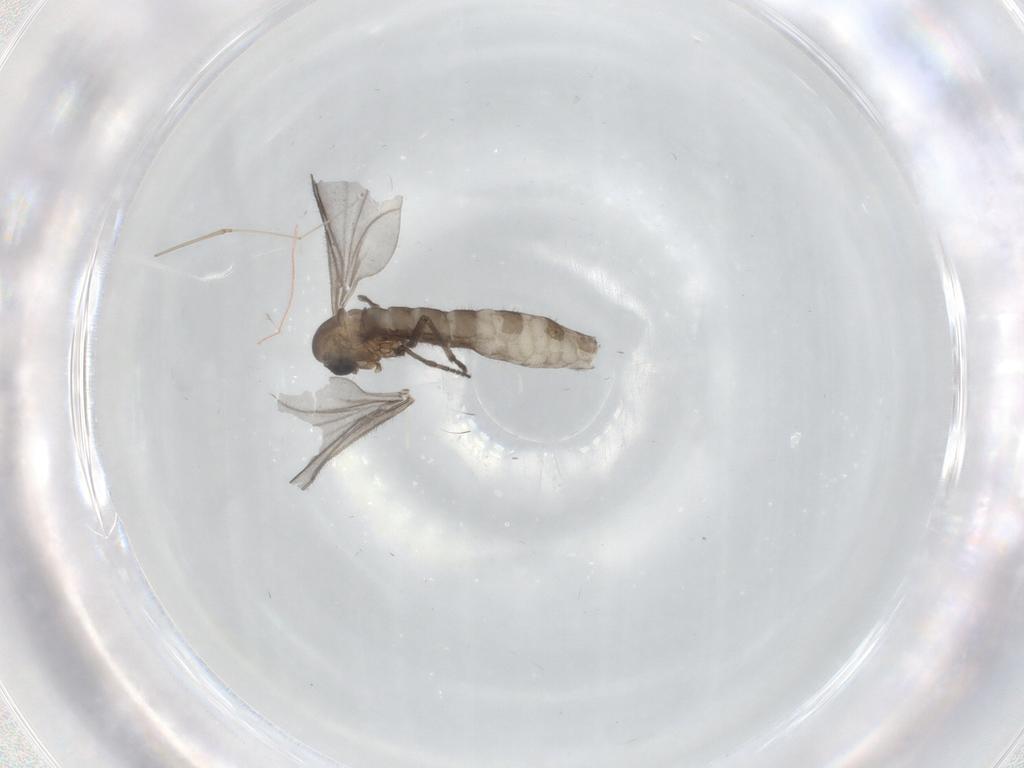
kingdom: Animalia
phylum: Arthropoda
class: Insecta
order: Diptera
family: Sciaridae
